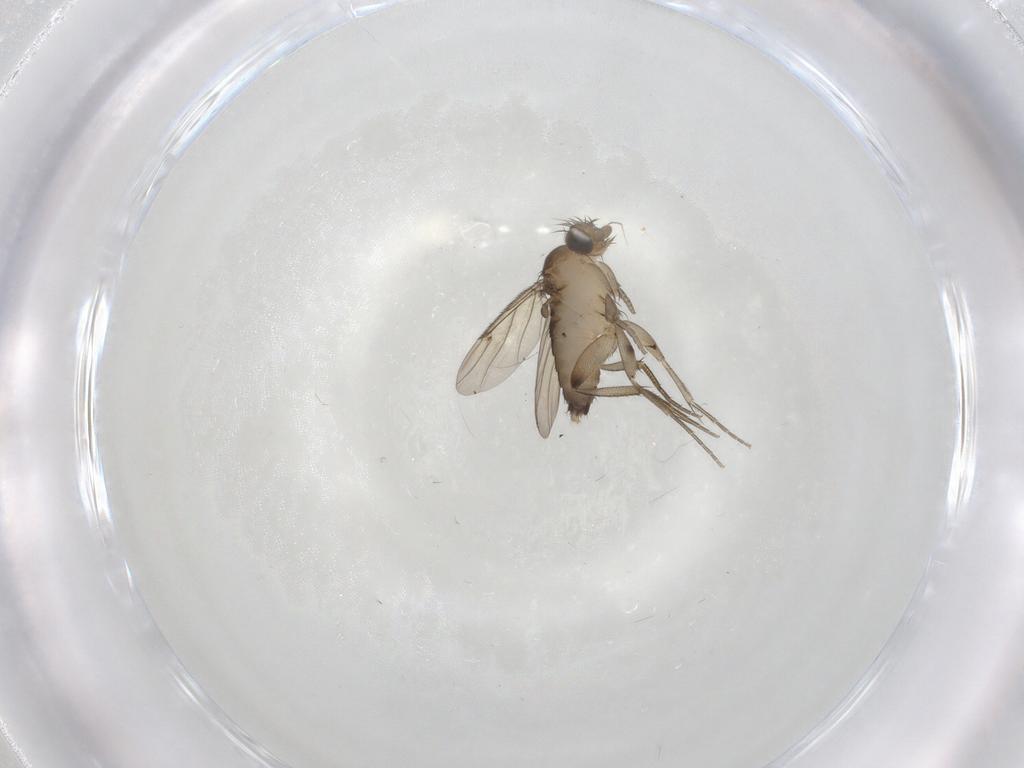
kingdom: Animalia
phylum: Arthropoda
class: Insecta
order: Diptera
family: Phoridae
